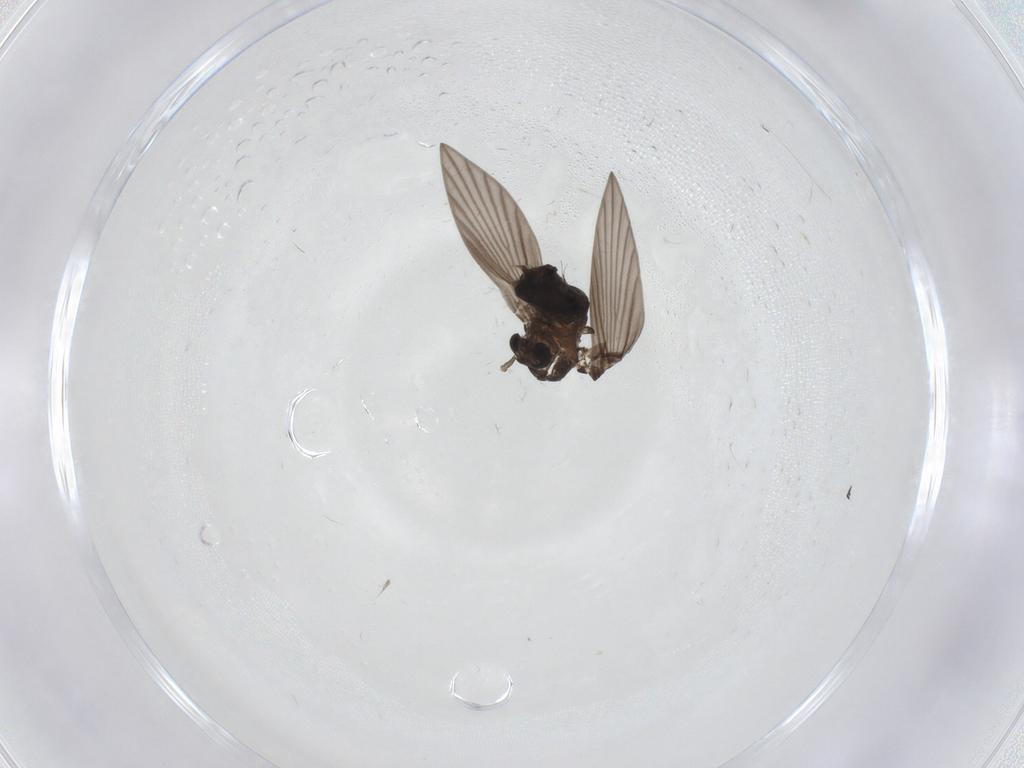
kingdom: Animalia
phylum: Arthropoda
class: Insecta
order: Diptera
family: Psychodidae
